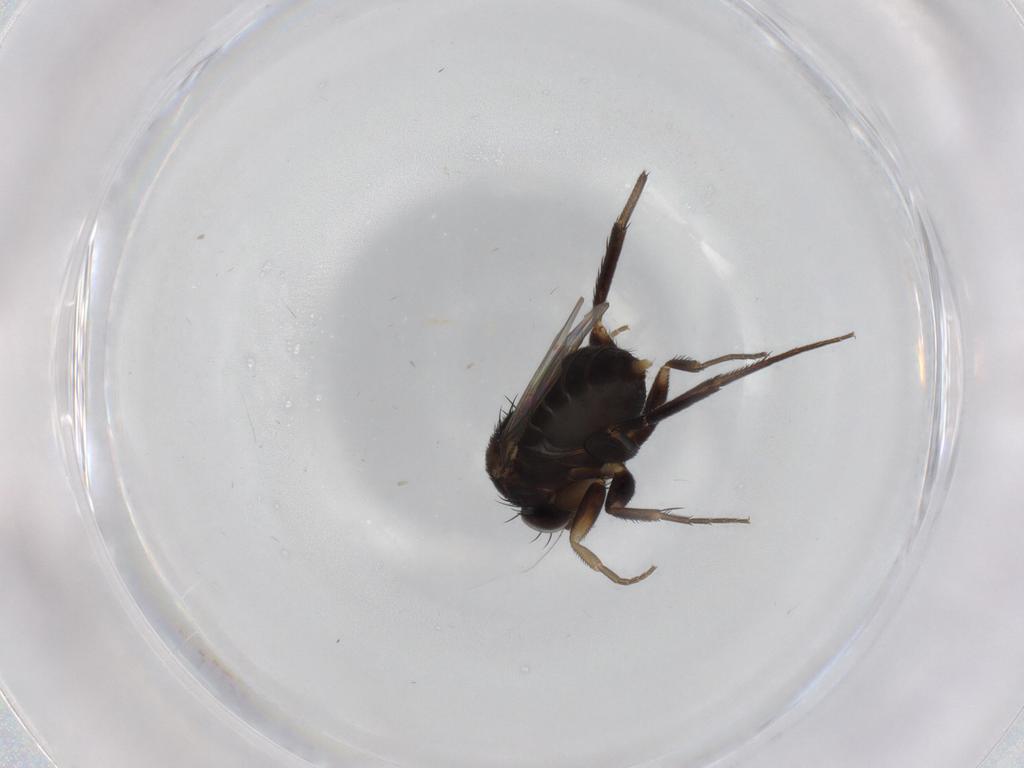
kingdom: Animalia
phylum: Arthropoda
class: Insecta
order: Diptera
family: Phoridae
